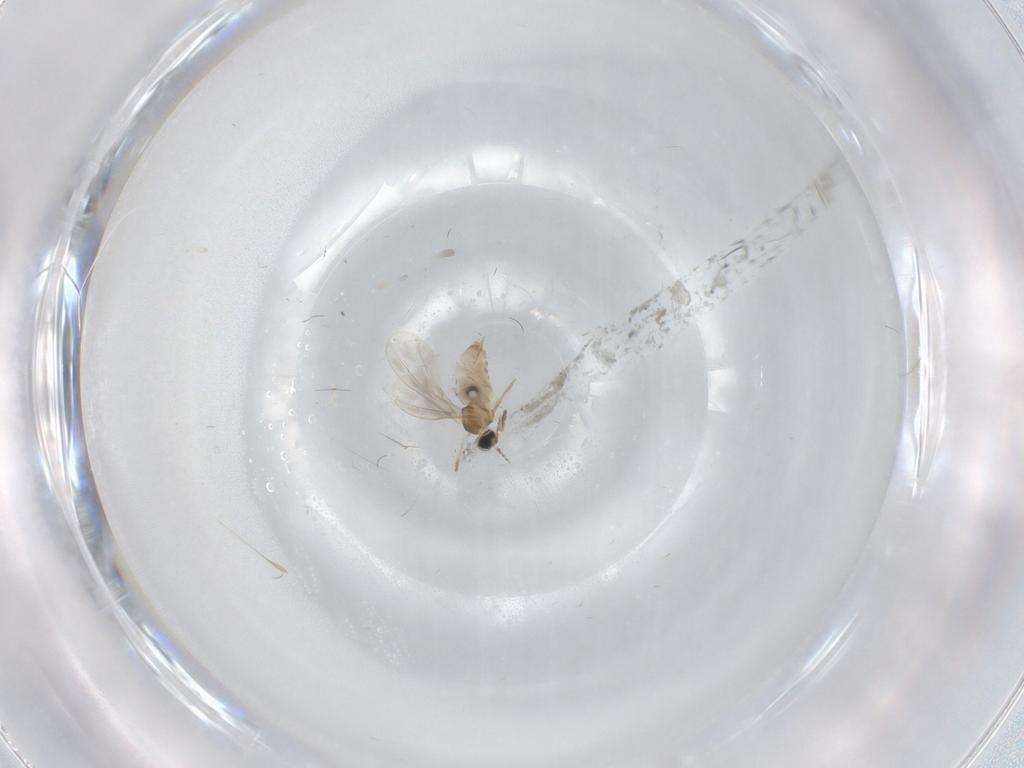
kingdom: Animalia
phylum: Arthropoda
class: Insecta
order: Diptera
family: Cecidomyiidae
